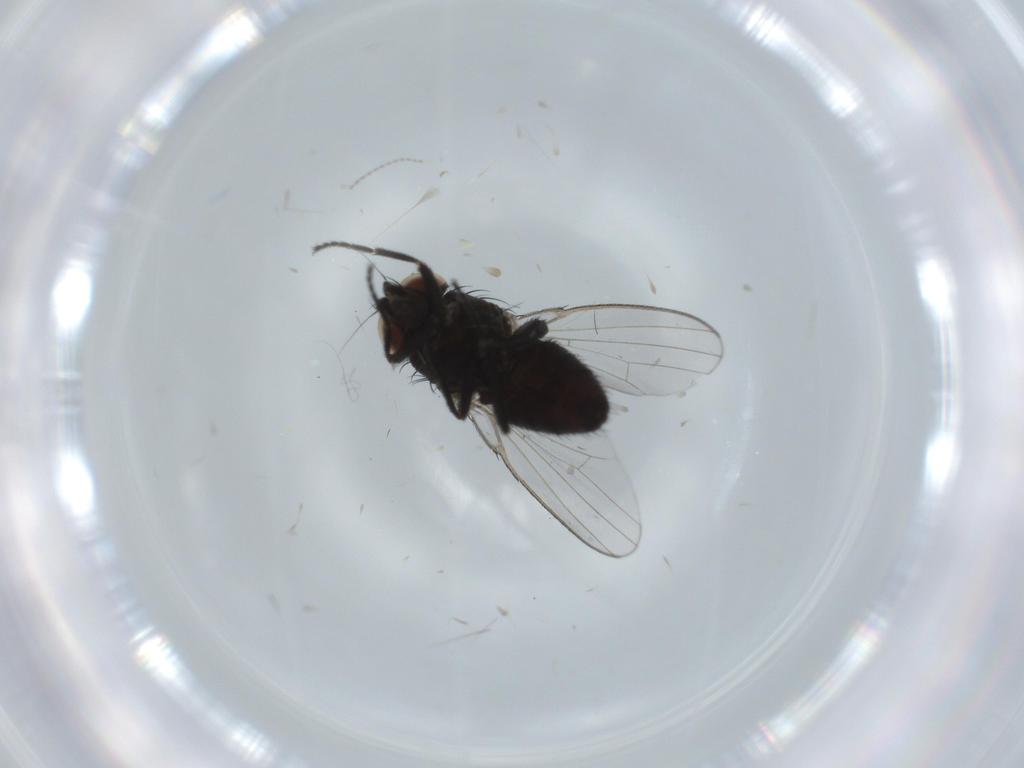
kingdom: Animalia
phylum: Arthropoda
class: Insecta
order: Diptera
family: Milichiidae
